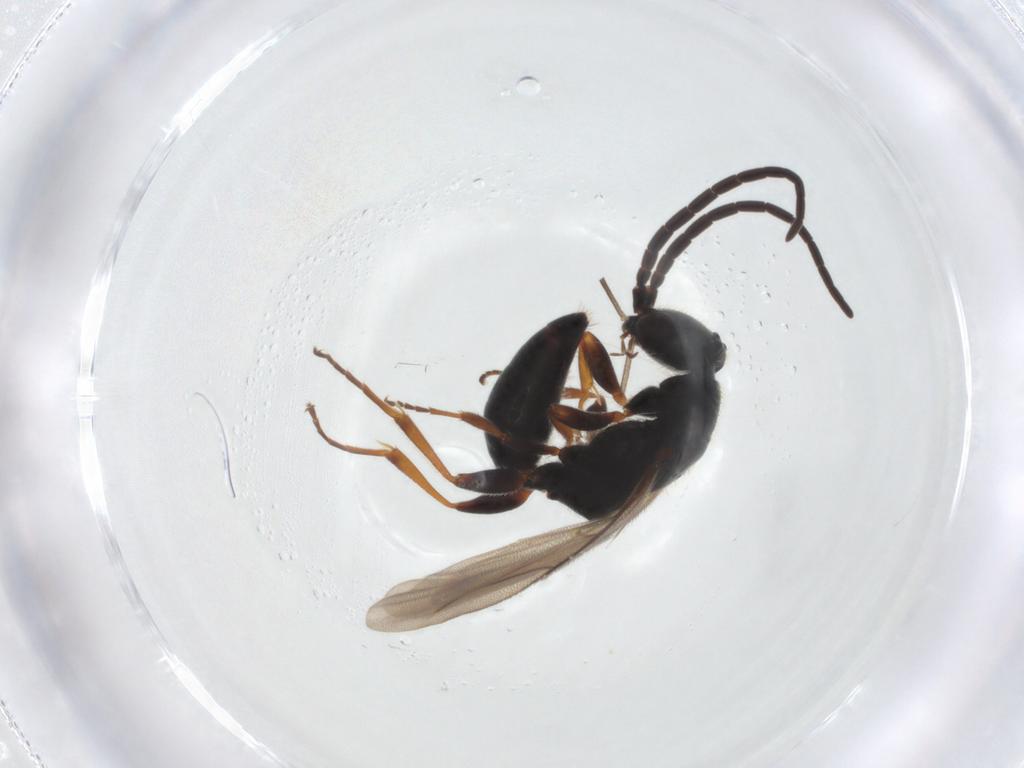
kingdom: Animalia
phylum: Arthropoda
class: Insecta
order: Hymenoptera
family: Bethylidae
